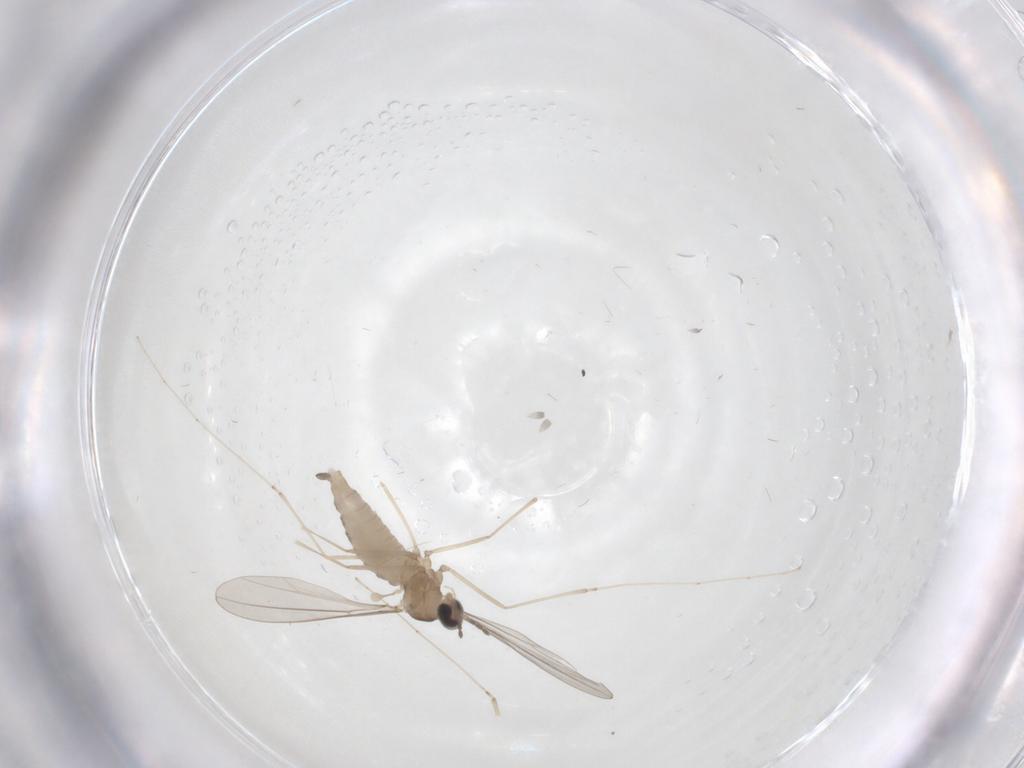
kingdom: Animalia
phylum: Arthropoda
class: Insecta
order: Diptera
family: Cecidomyiidae
